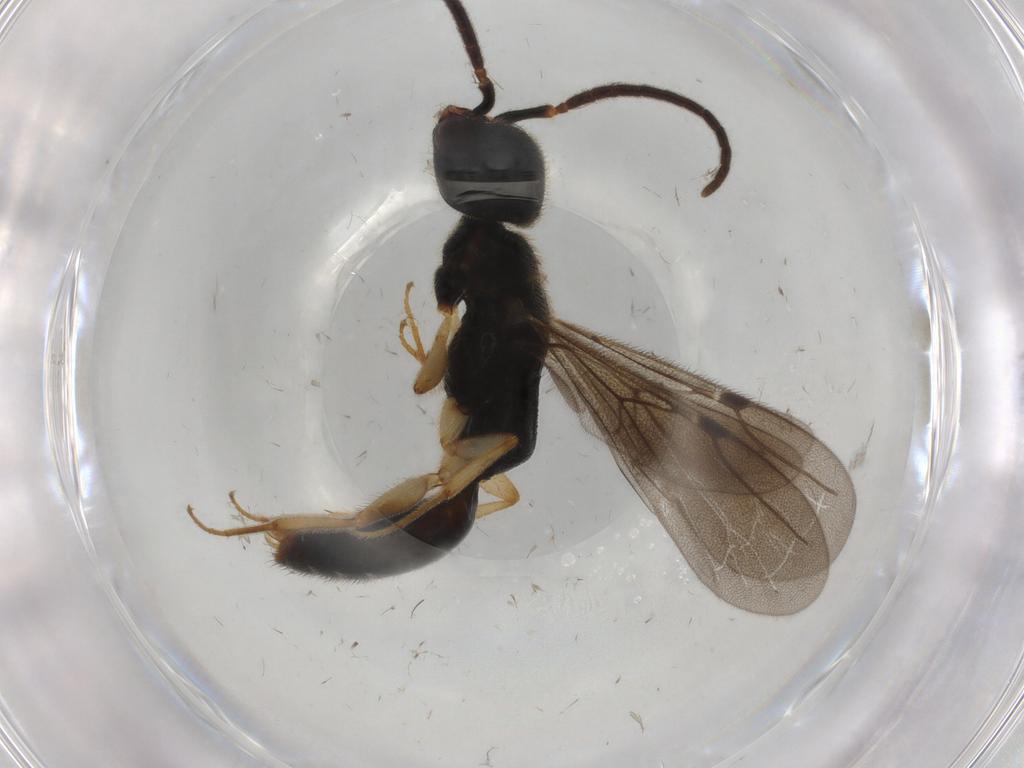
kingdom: Animalia
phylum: Arthropoda
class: Insecta
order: Hymenoptera
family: Bethylidae
